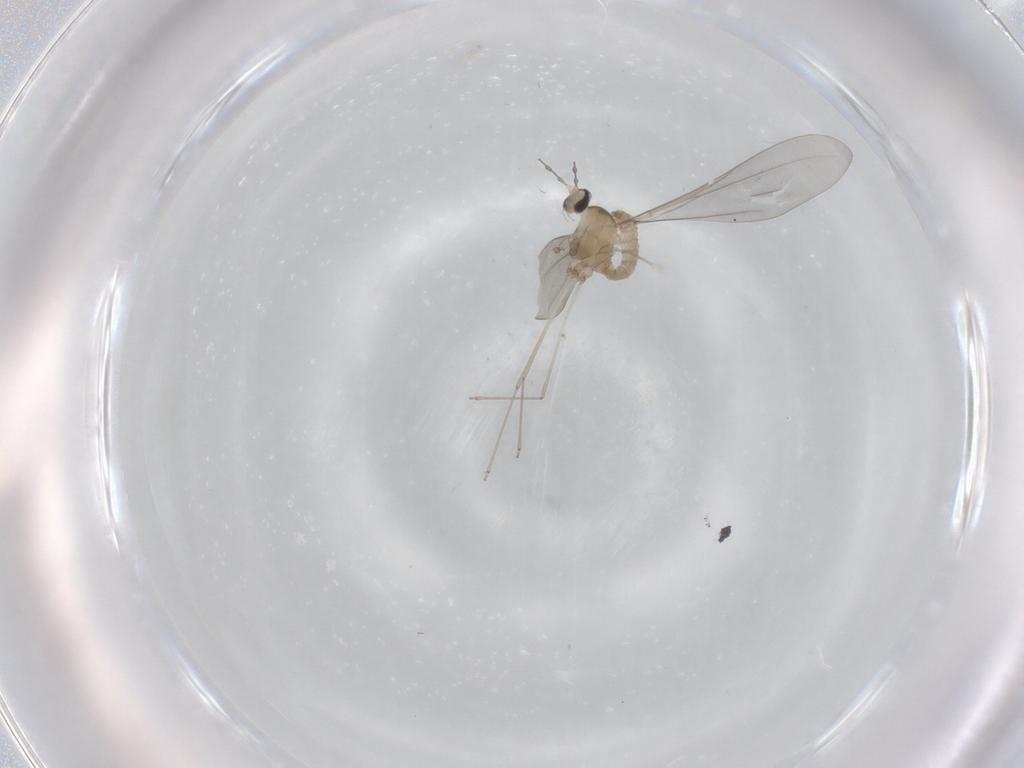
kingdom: Animalia
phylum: Arthropoda
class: Insecta
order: Diptera
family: Cecidomyiidae
